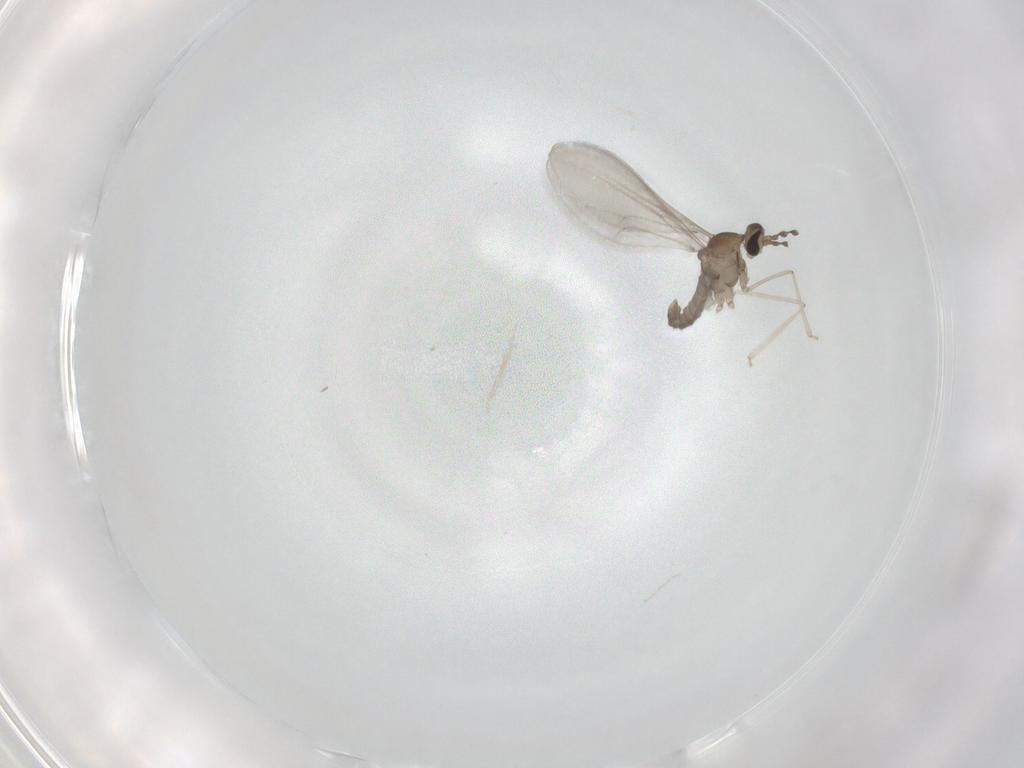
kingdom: Animalia
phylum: Arthropoda
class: Insecta
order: Diptera
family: Cecidomyiidae
